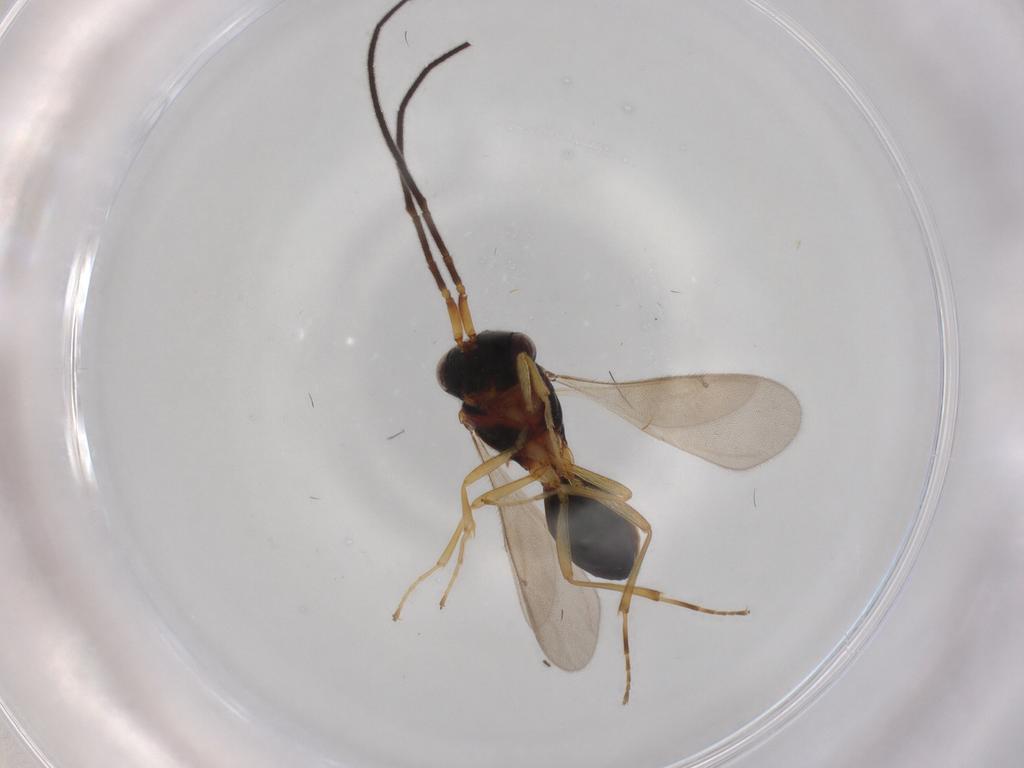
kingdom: Animalia
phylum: Arthropoda
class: Insecta
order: Hymenoptera
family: Scelionidae
